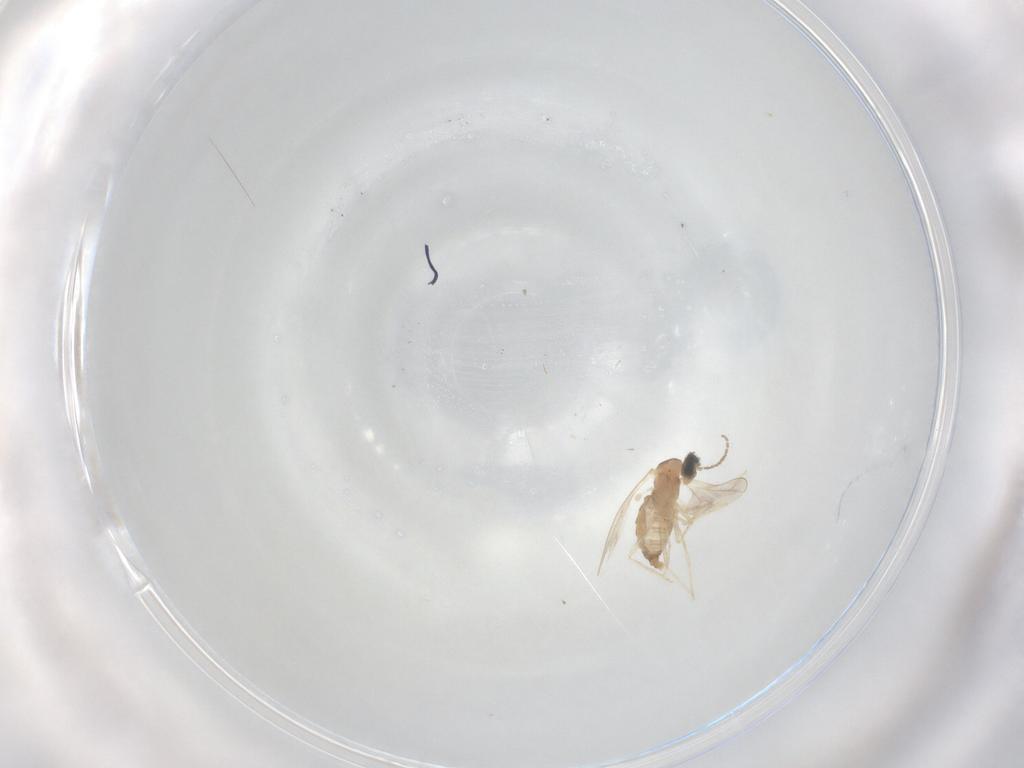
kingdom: Animalia
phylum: Arthropoda
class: Insecta
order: Diptera
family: Cecidomyiidae
